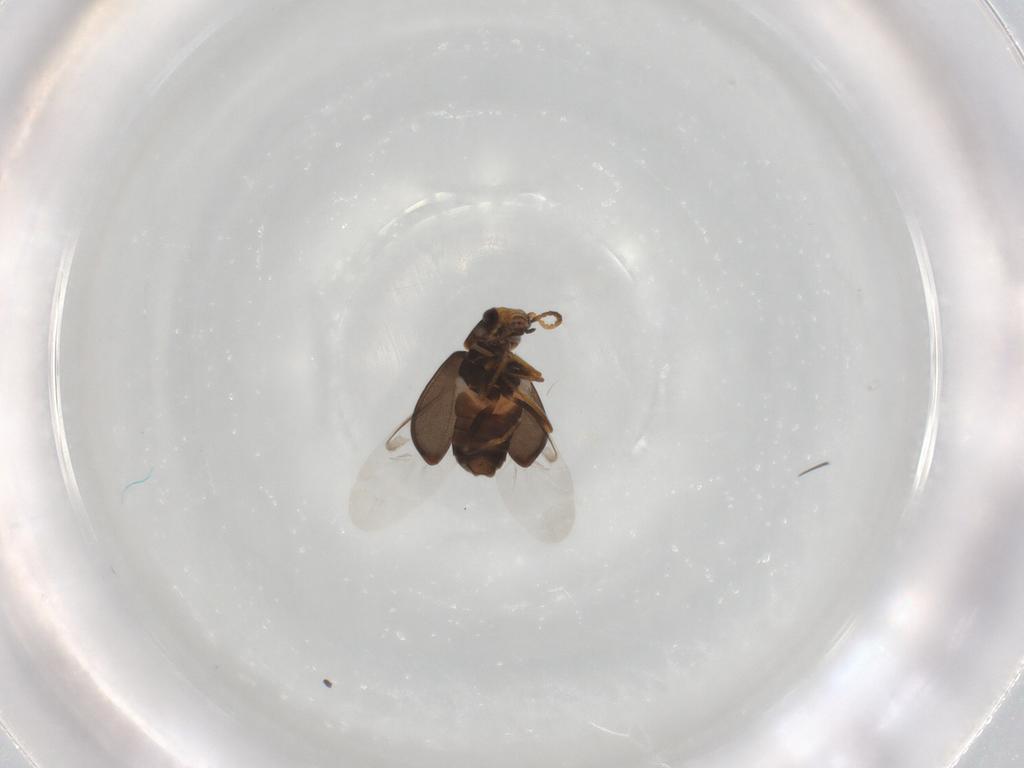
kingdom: Animalia
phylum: Arthropoda
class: Insecta
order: Coleoptera
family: Melyridae
